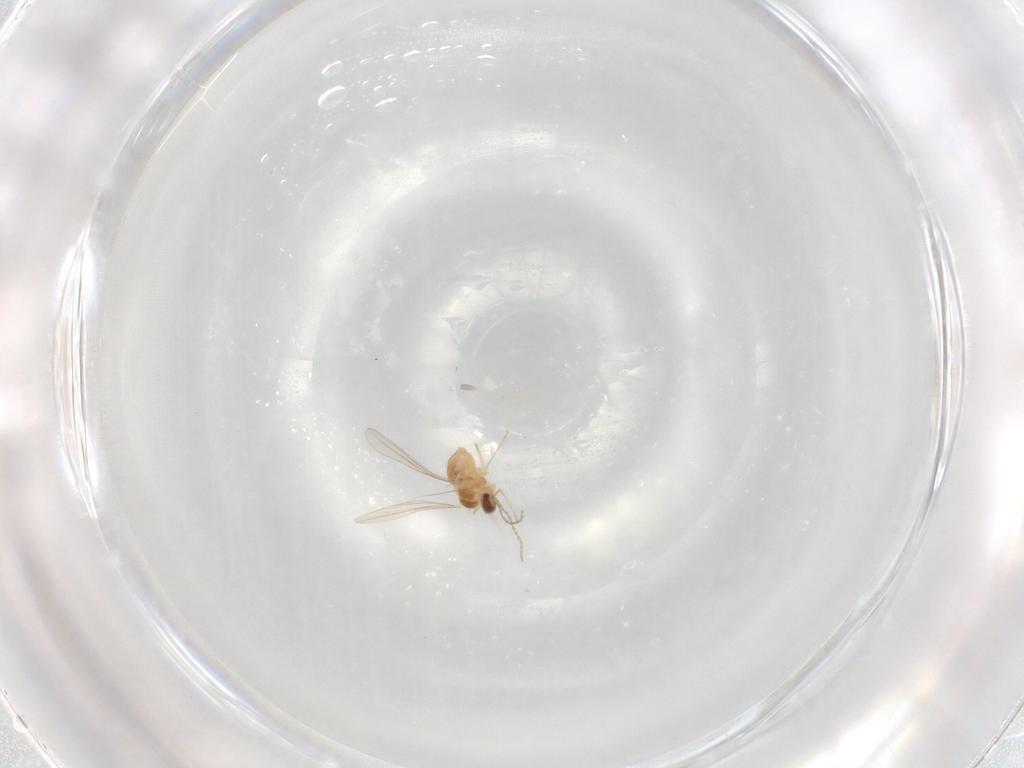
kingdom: Animalia
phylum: Arthropoda
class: Insecta
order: Diptera
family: Cecidomyiidae
